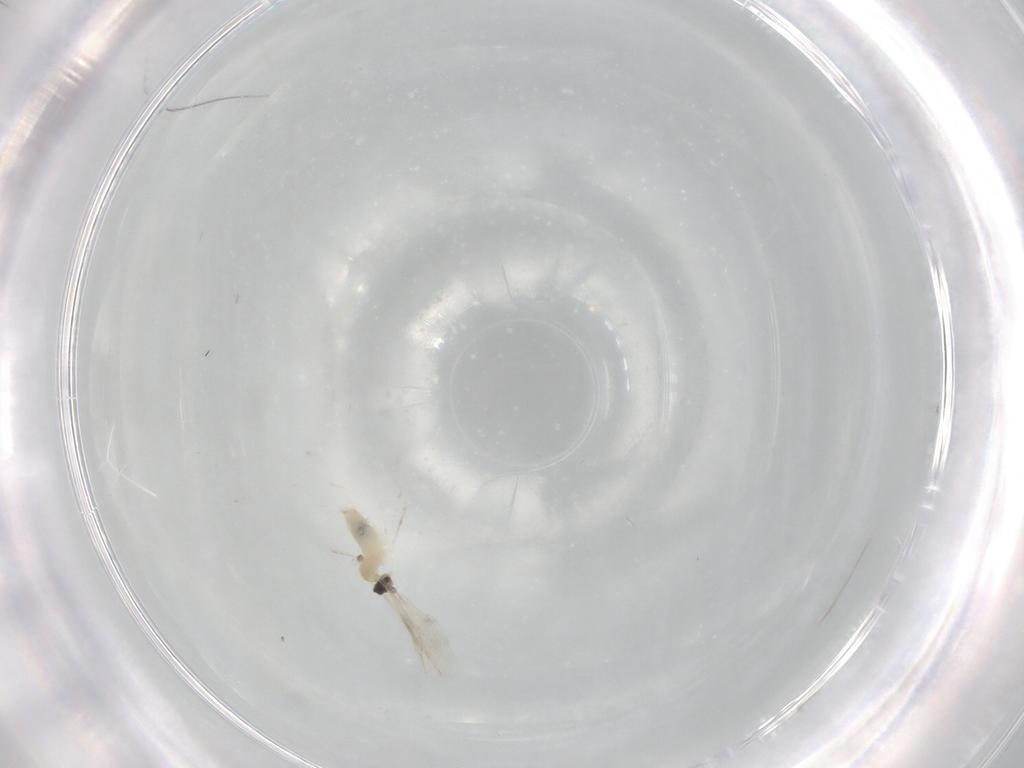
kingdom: Animalia
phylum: Arthropoda
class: Insecta
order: Diptera
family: Cecidomyiidae
